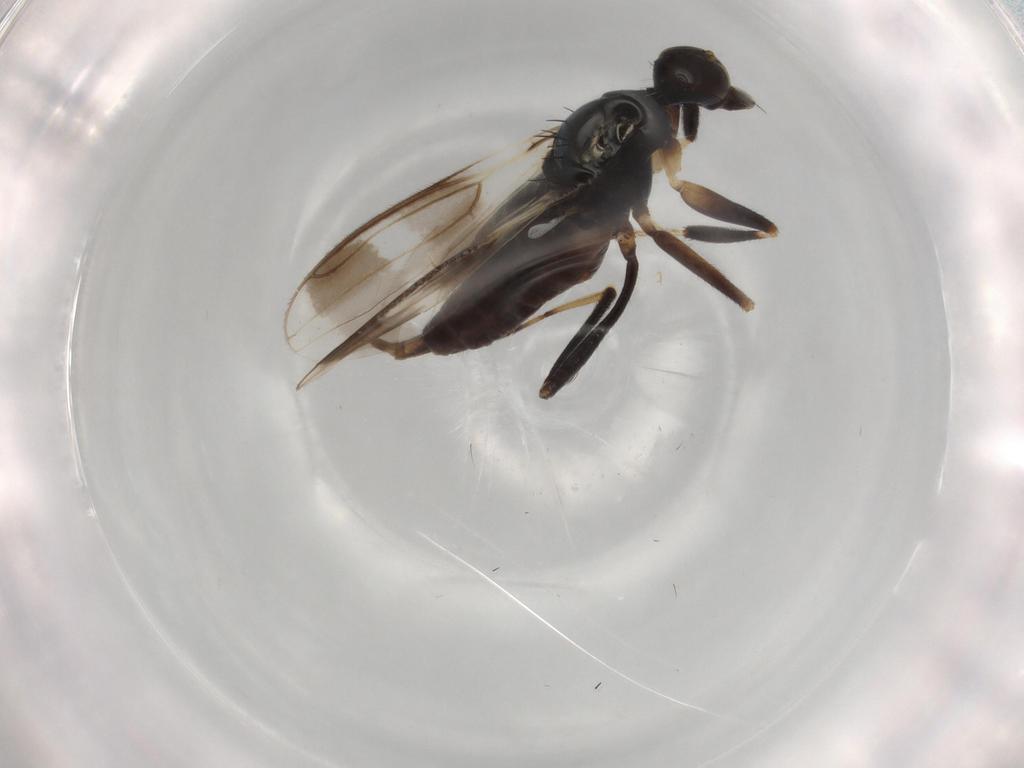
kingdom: Animalia
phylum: Arthropoda
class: Insecta
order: Diptera
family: Hybotidae
